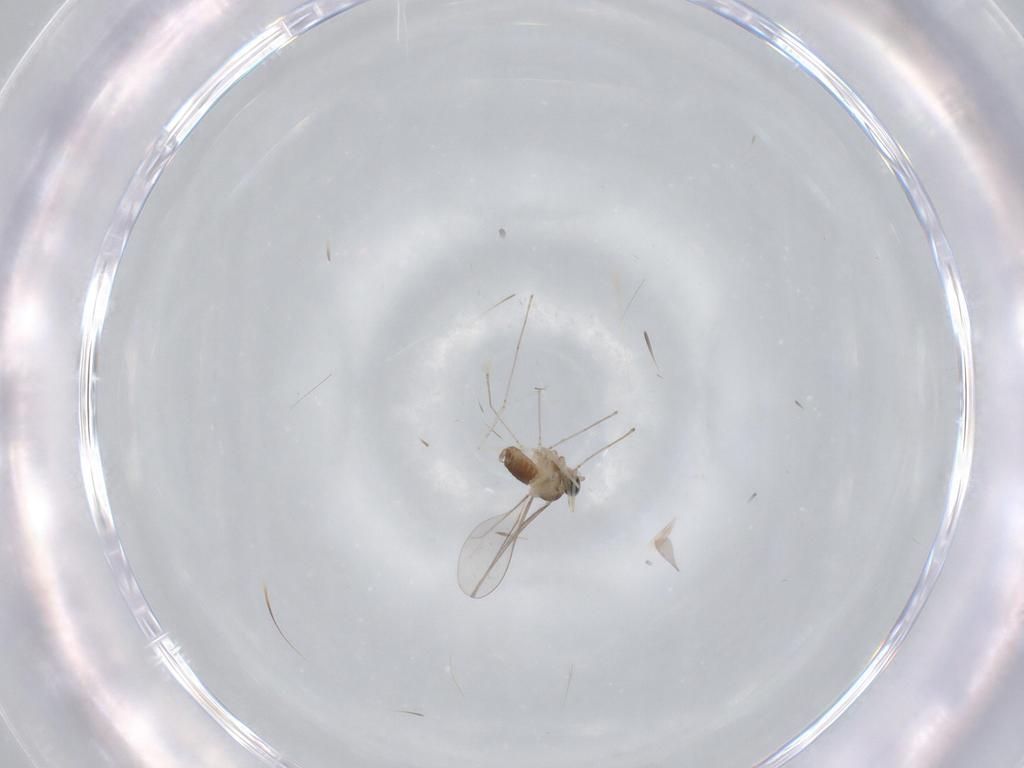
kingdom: Animalia
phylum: Arthropoda
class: Insecta
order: Diptera
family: Cecidomyiidae
